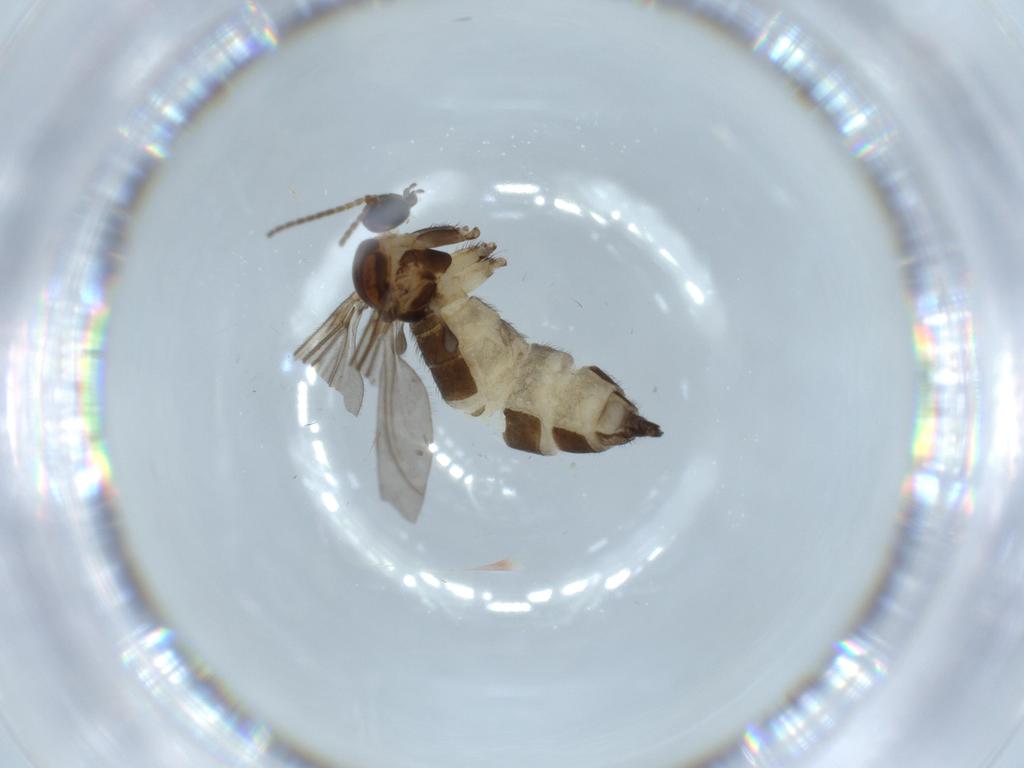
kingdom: Animalia
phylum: Arthropoda
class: Insecta
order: Diptera
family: Sciaridae
